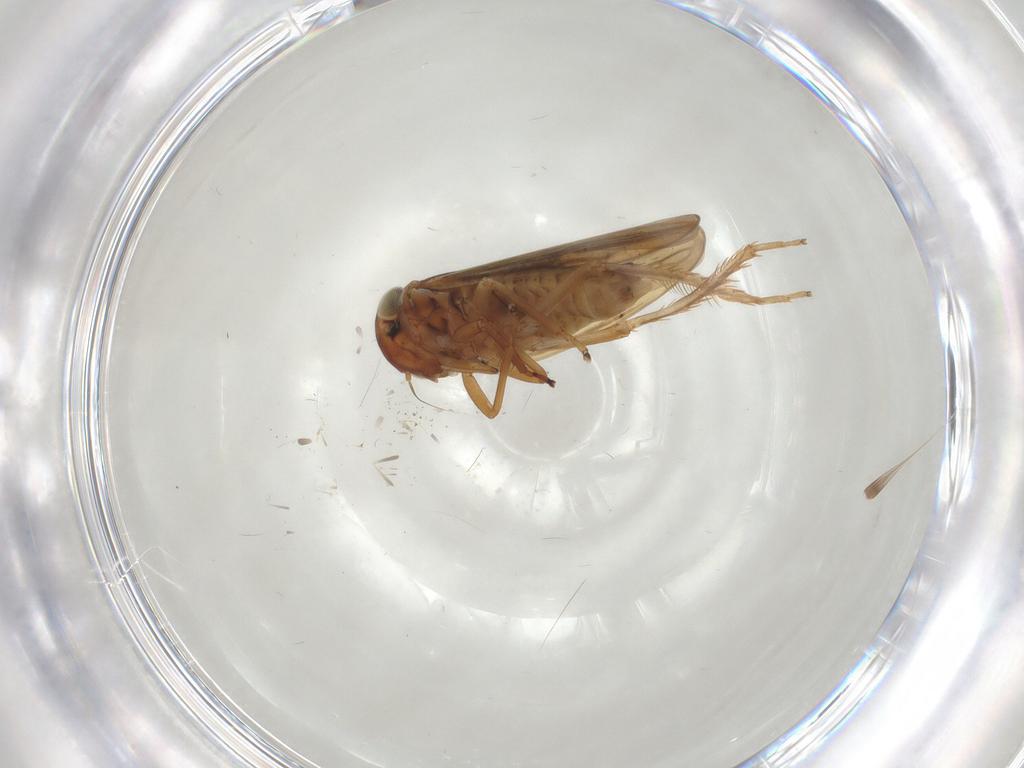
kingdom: Animalia
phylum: Arthropoda
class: Insecta
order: Hemiptera
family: Cicadellidae
